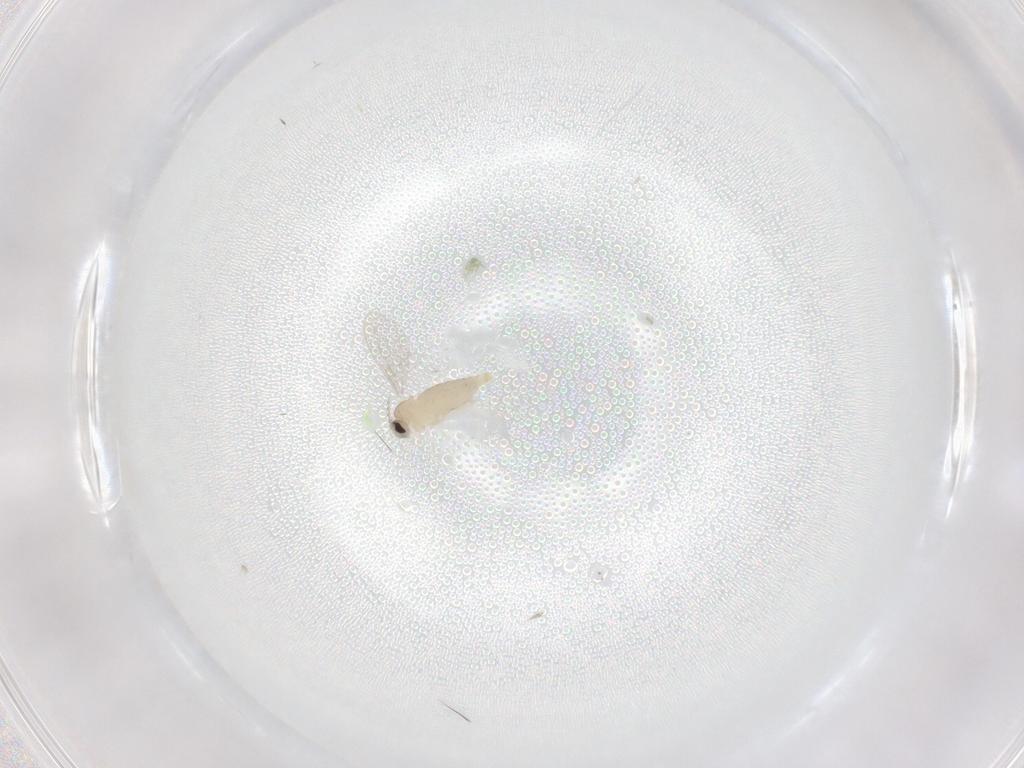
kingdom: Animalia
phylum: Arthropoda
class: Insecta
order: Diptera
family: Cecidomyiidae
